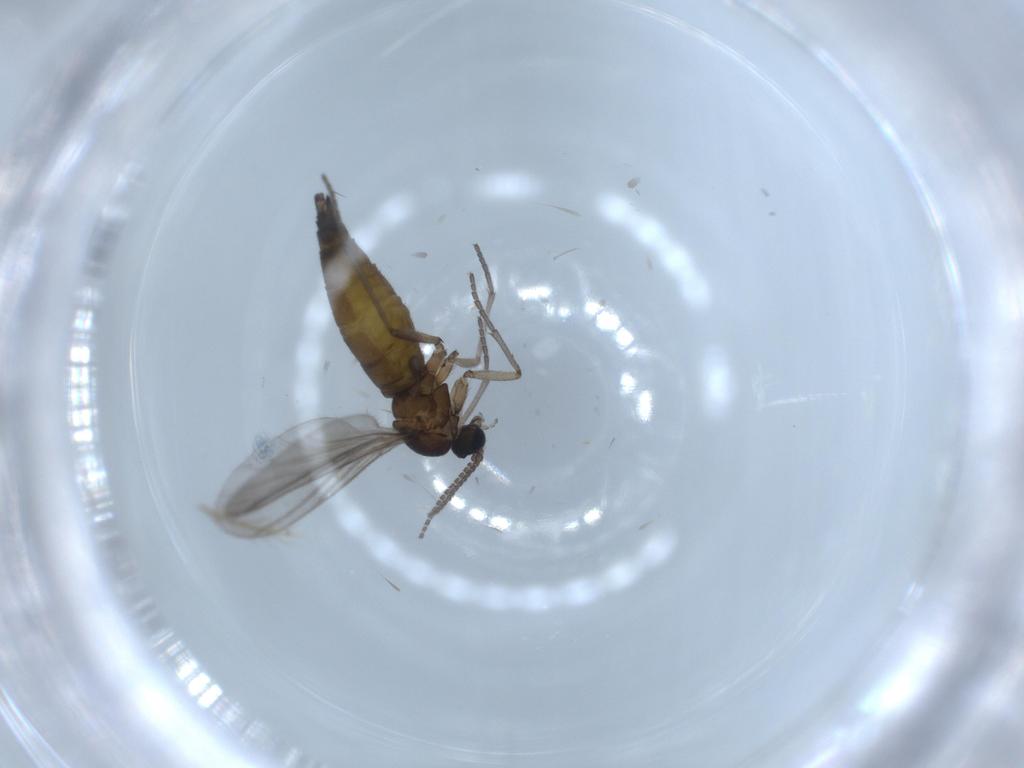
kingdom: Animalia
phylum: Arthropoda
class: Insecta
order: Diptera
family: Sciaridae
